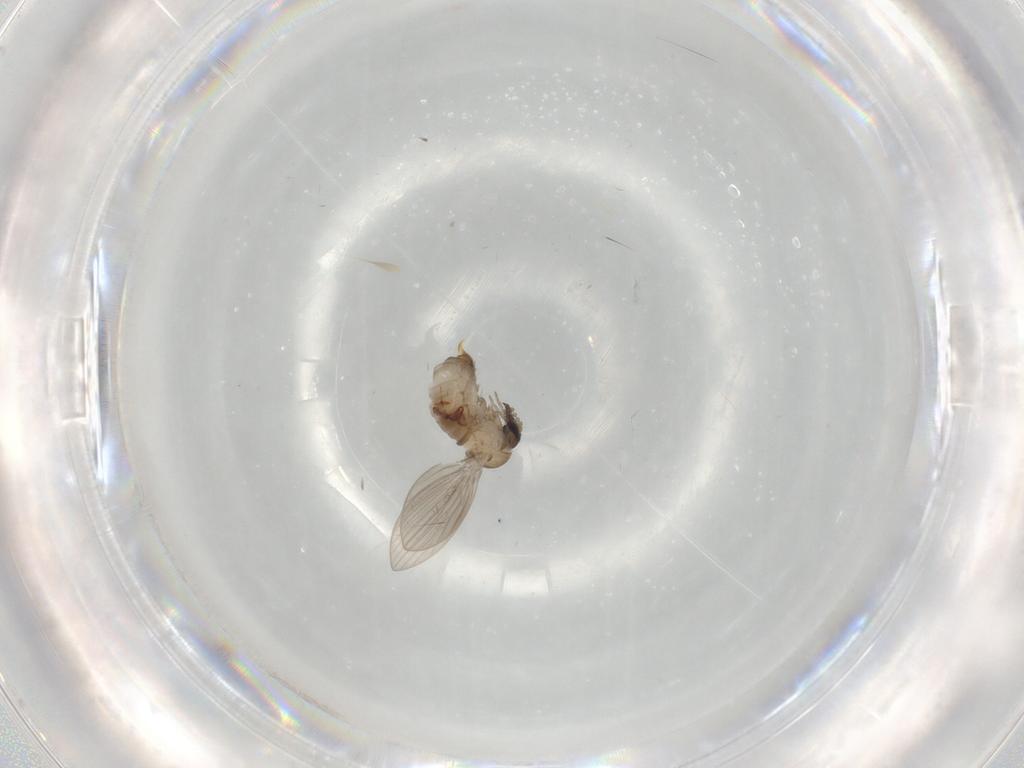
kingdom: Animalia
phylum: Arthropoda
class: Insecta
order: Diptera
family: Psychodidae
